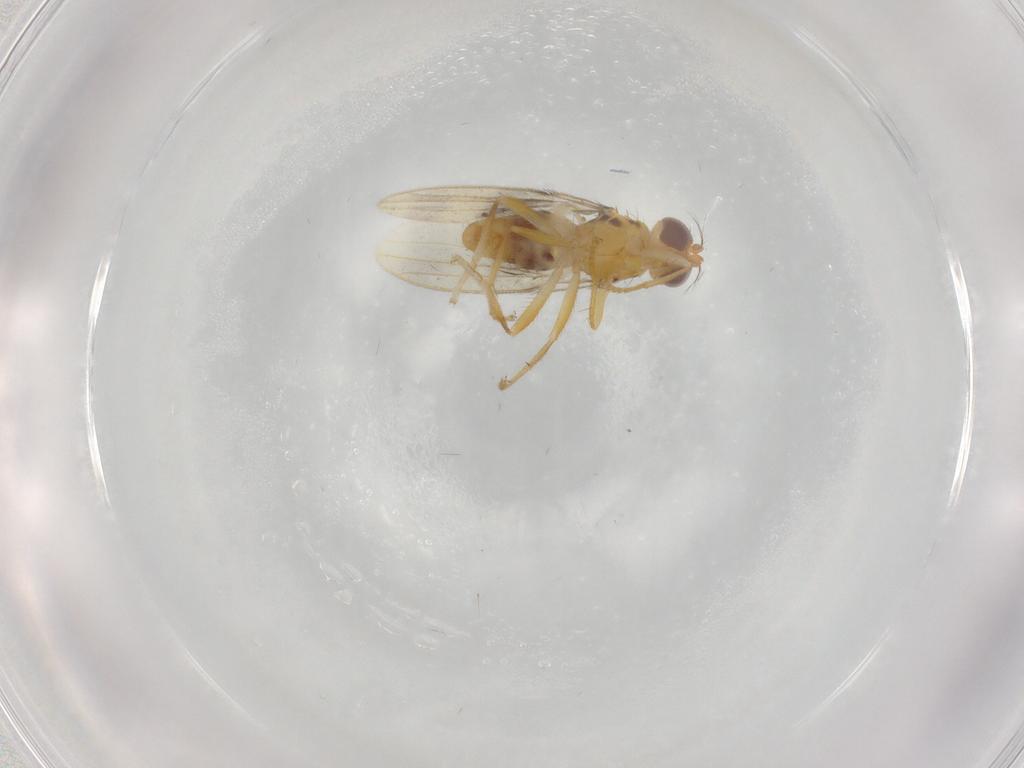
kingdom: Animalia
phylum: Arthropoda
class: Insecta
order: Diptera
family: Periscelididae
